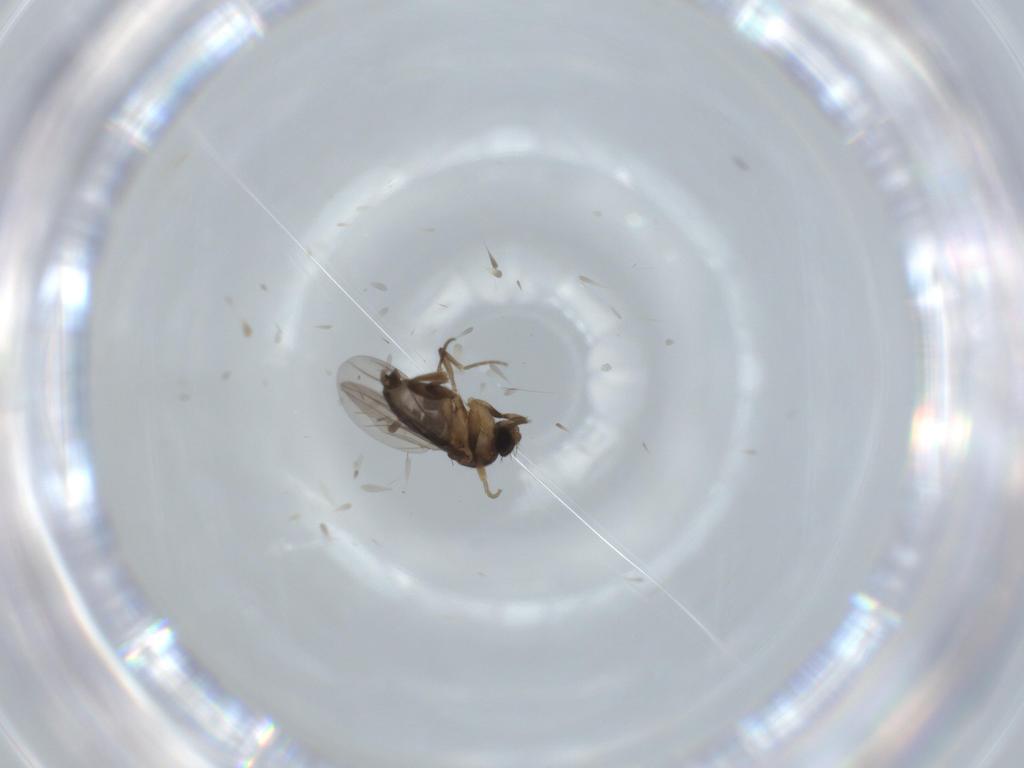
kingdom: Animalia
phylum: Arthropoda
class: Insecta
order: Diptera
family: Phoridae
